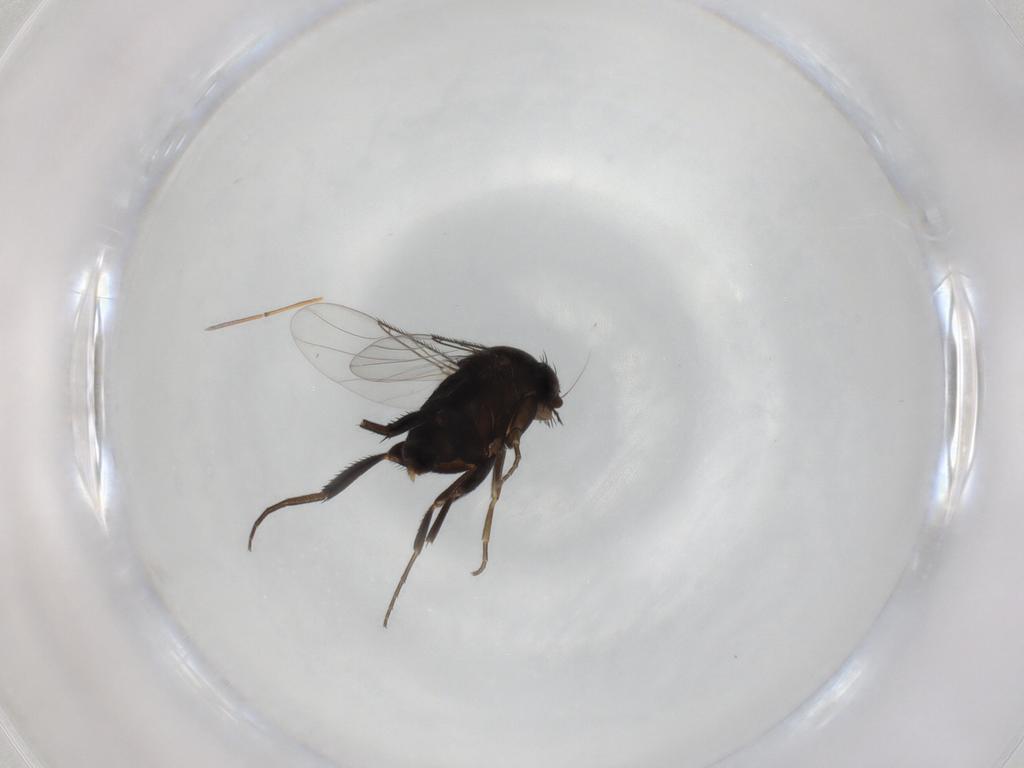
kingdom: Animalia
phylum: Arthropoda
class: Insecta
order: Diptera
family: Phoridae
